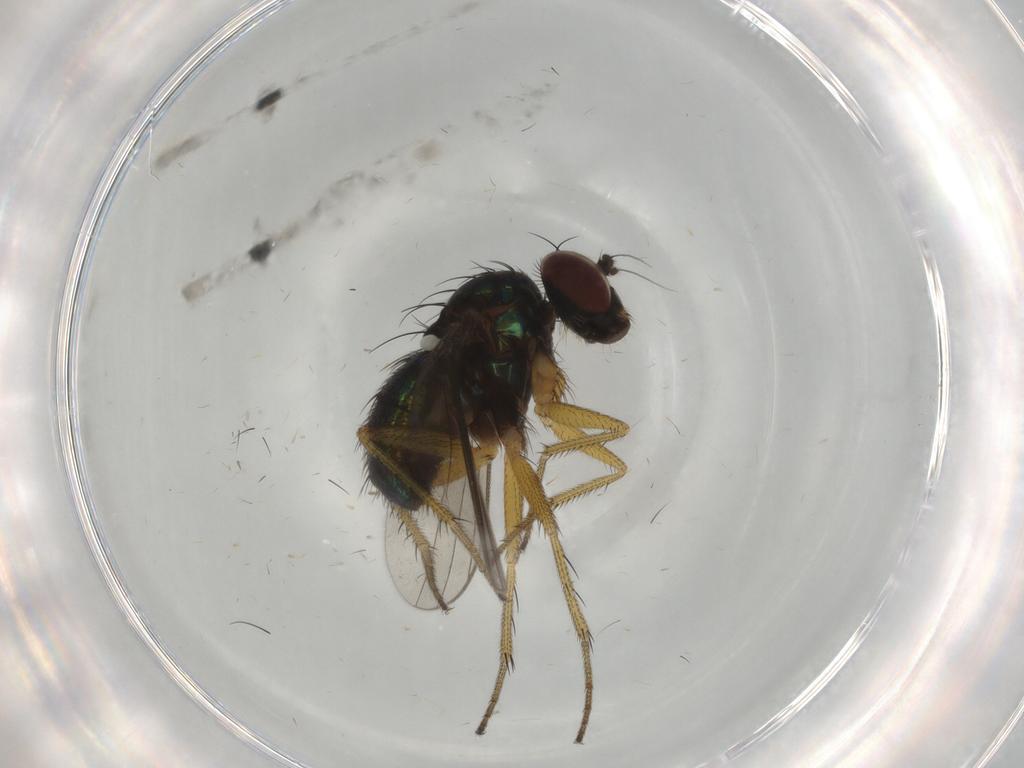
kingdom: Animalia
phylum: Arthropoda
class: Insecta
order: Diptera
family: Dolichopodidae
